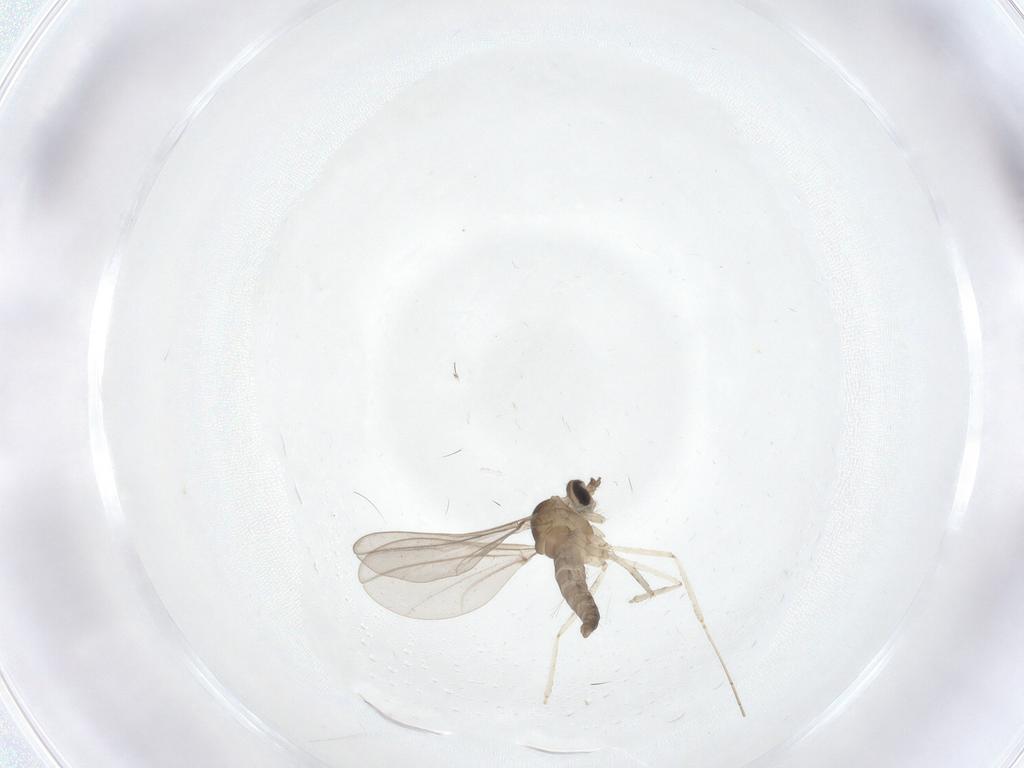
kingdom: Animalia
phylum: Arthropoda
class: Insecta
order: Diptera
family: Cecidomyiidae
